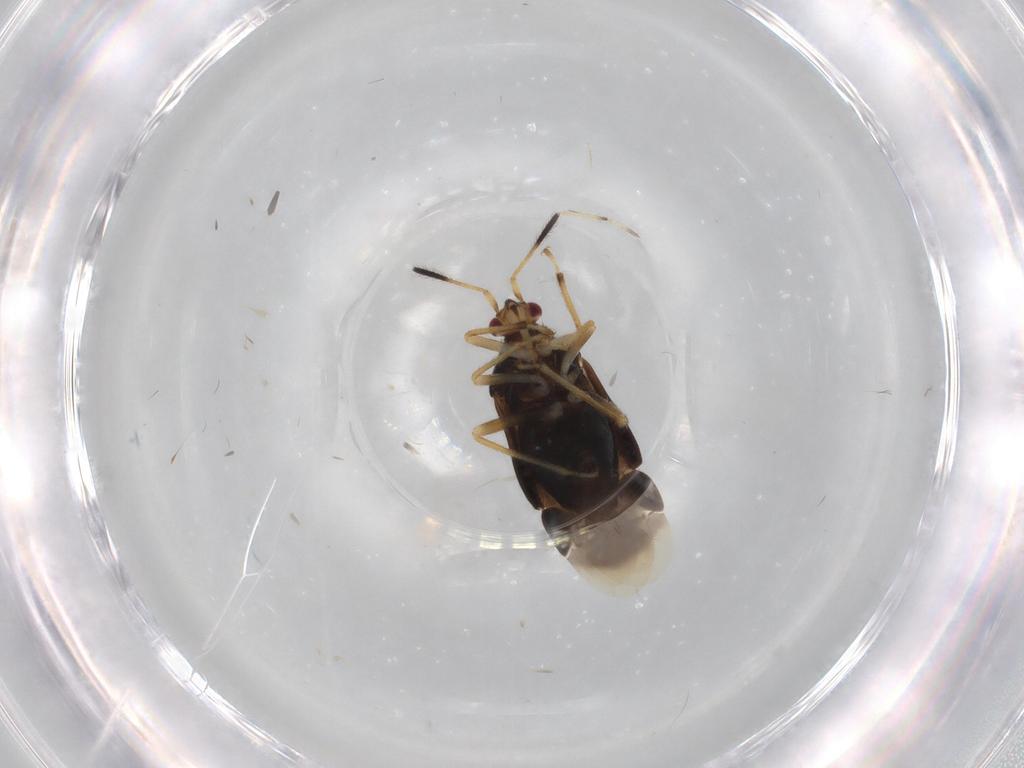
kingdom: Animalia
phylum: Arthropoda
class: Insecta
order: Hemiptera
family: Miridae
